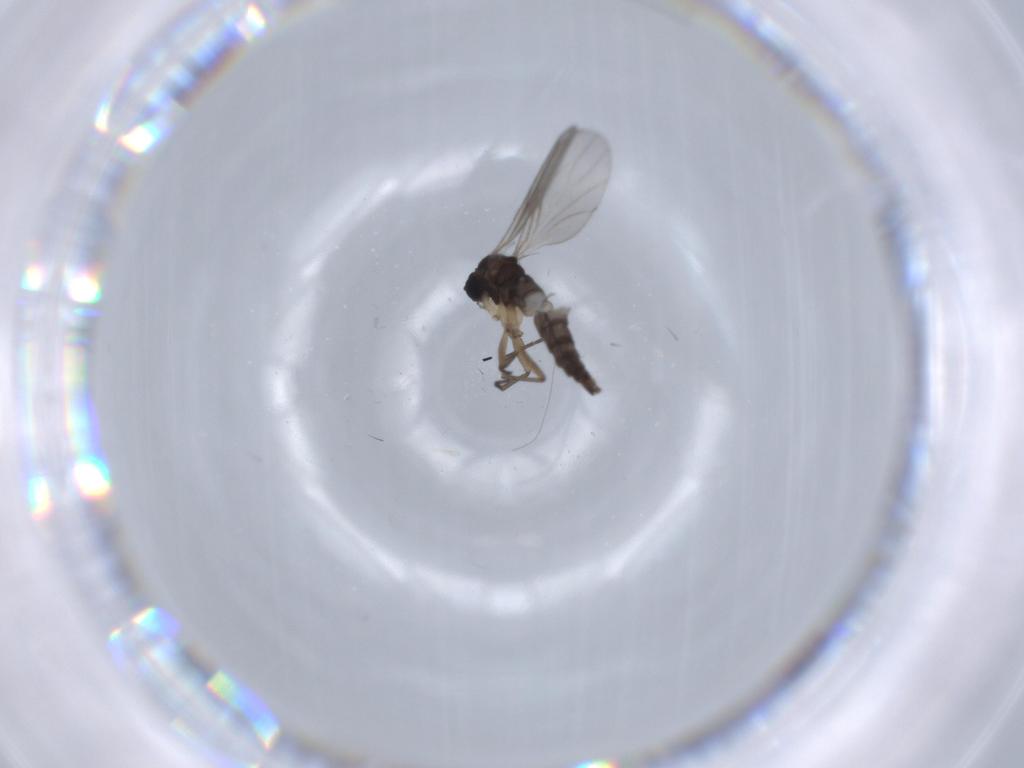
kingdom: Animalia
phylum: Arthropoda
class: Insecta
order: Diptera
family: Sciaridae
